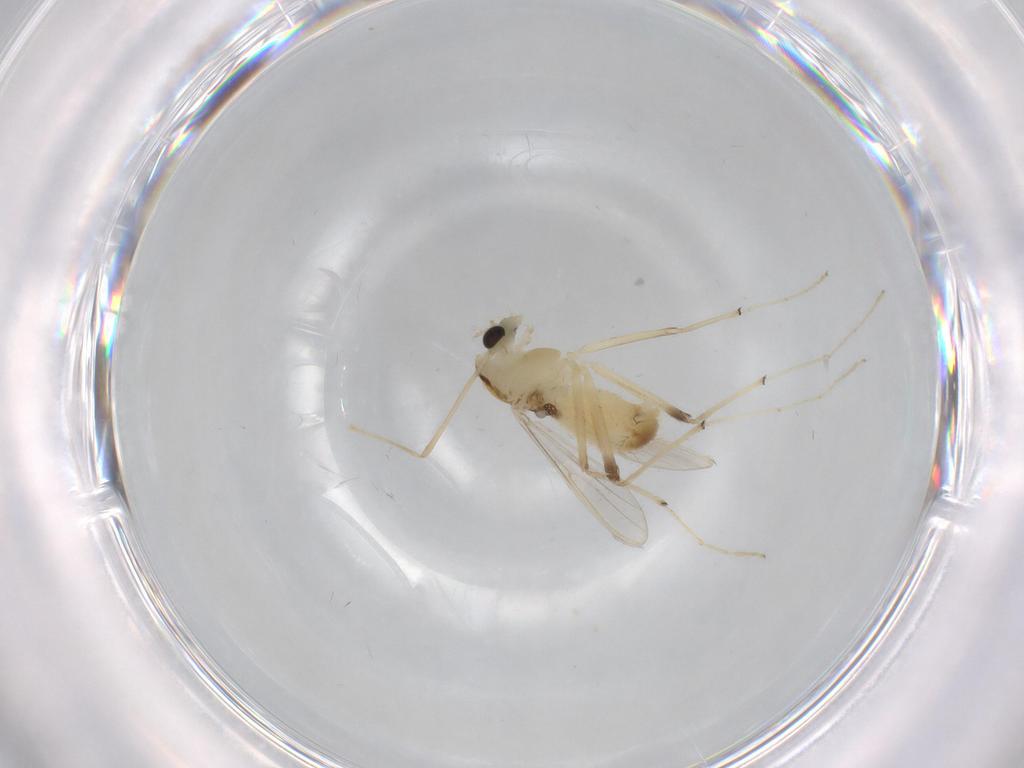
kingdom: Animalia
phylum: Arthropoda
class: Insecta
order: Diptera
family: Chironomidae
